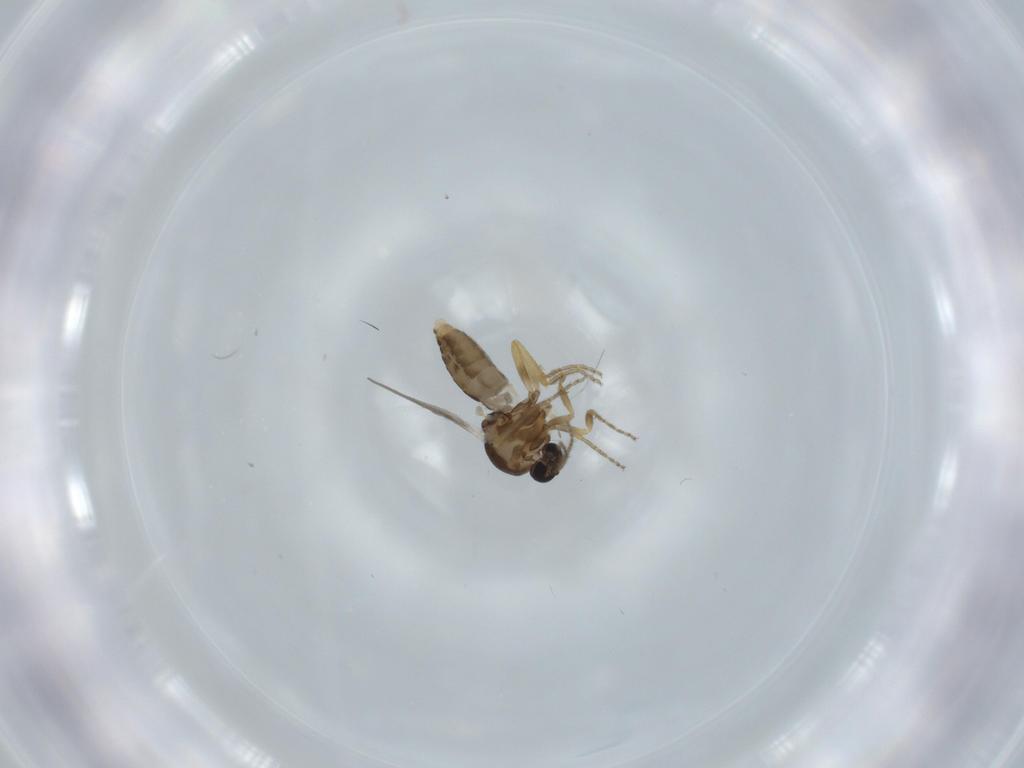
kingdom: Animalia
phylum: Arthropoda
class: Insecta
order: Diptera
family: Ceratopogonidae
